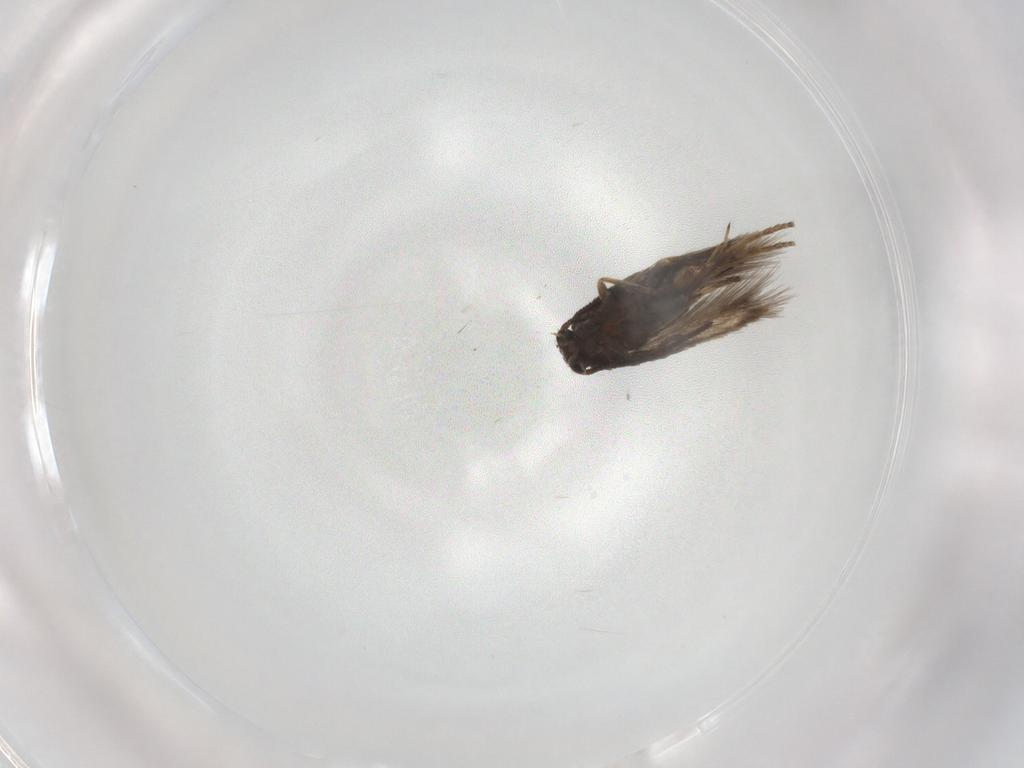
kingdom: Animalia
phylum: Arthropoda
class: Insecta
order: Lepidoptera
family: Nepticulidae
